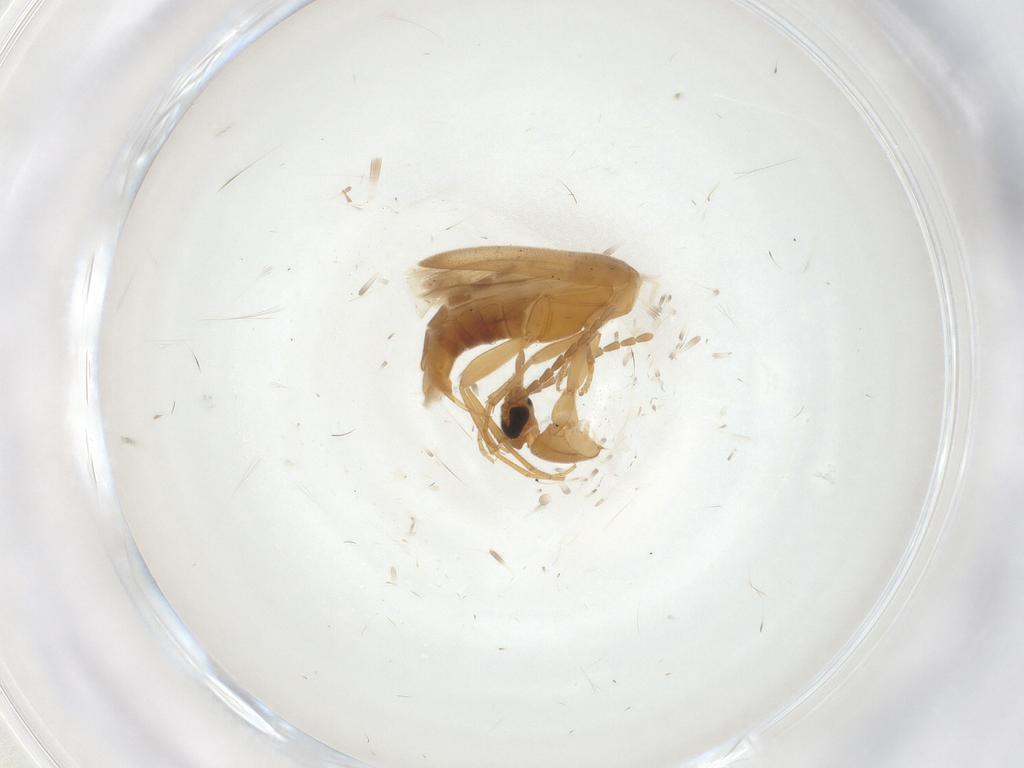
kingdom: Animalia
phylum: Arthropoda
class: Insecta
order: Coleoptera
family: Scraptiidae
